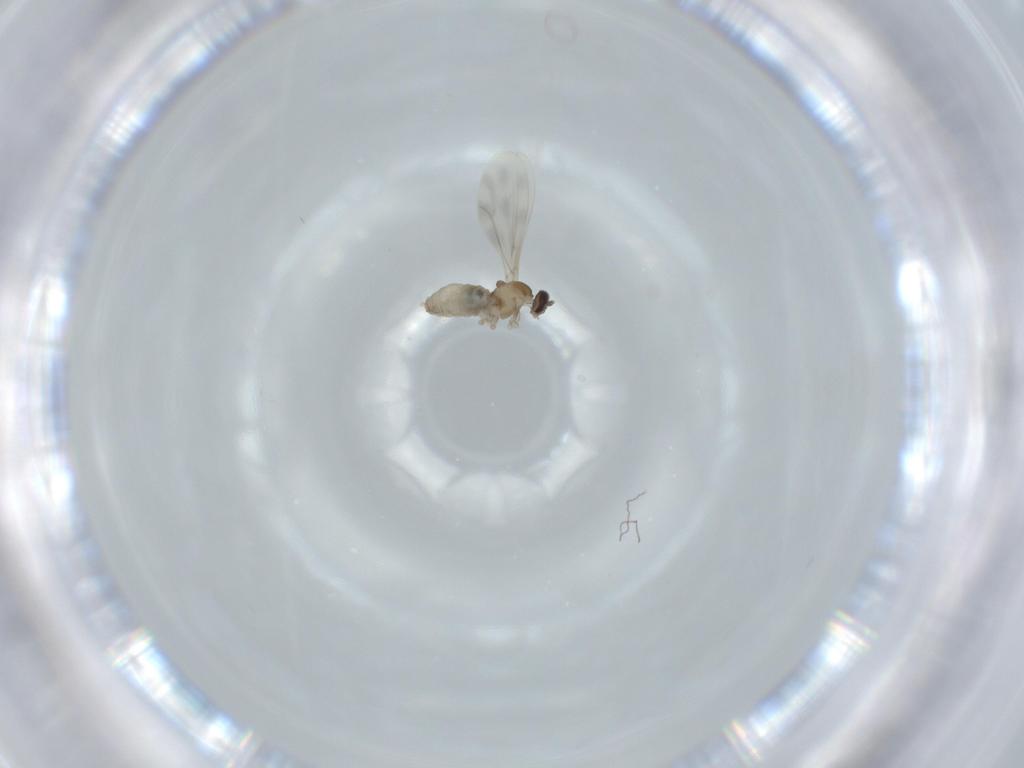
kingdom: Animalia
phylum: Arthropoda
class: Insecta
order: Diptera
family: Cecidomyiidae
